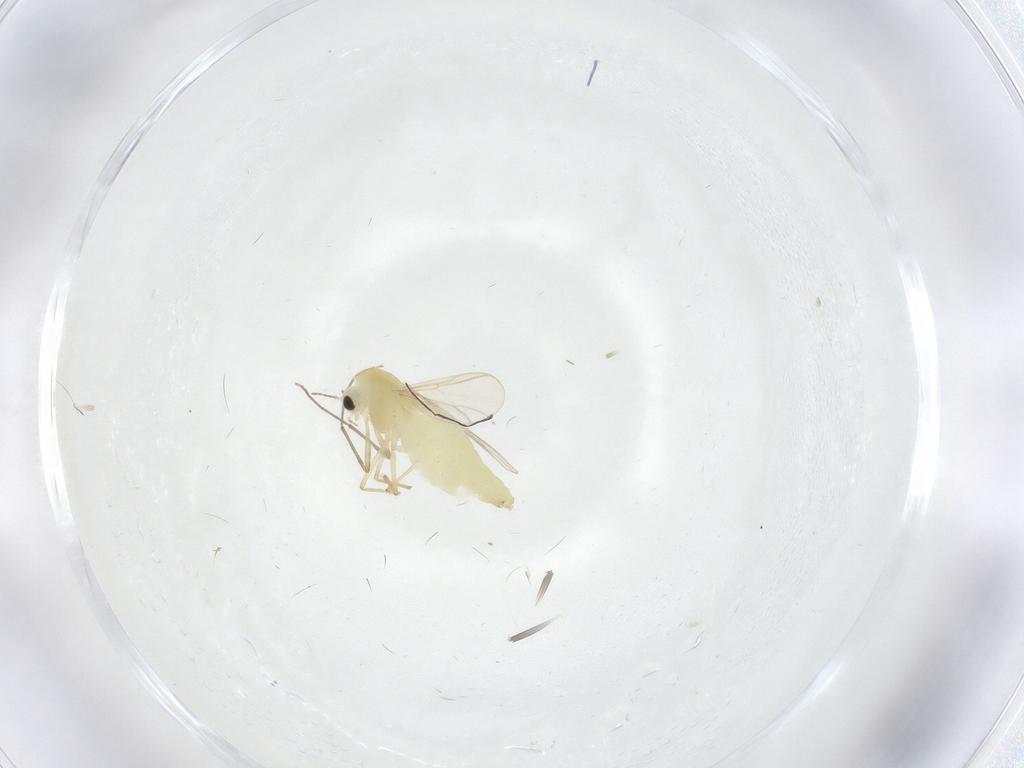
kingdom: Animalia
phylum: Arthropoda
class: Insecta
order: Diptera
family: Chironomidae
